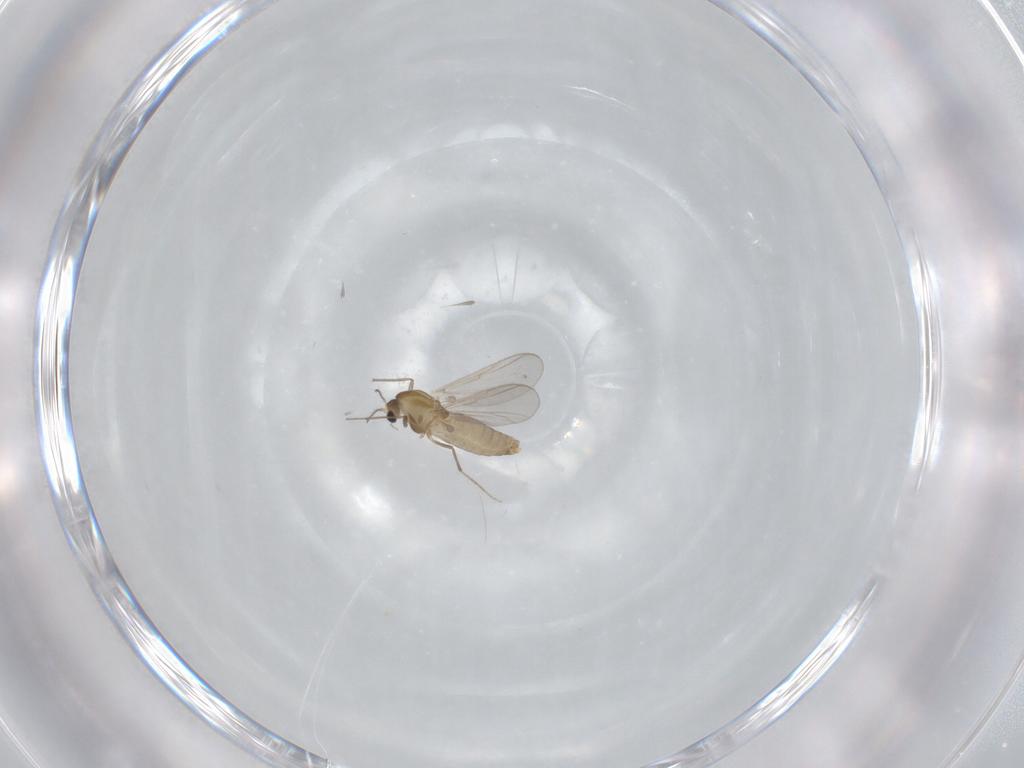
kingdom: Animalia
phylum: Arthropoda
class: Insecta
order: Diptera
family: Chironomidae
